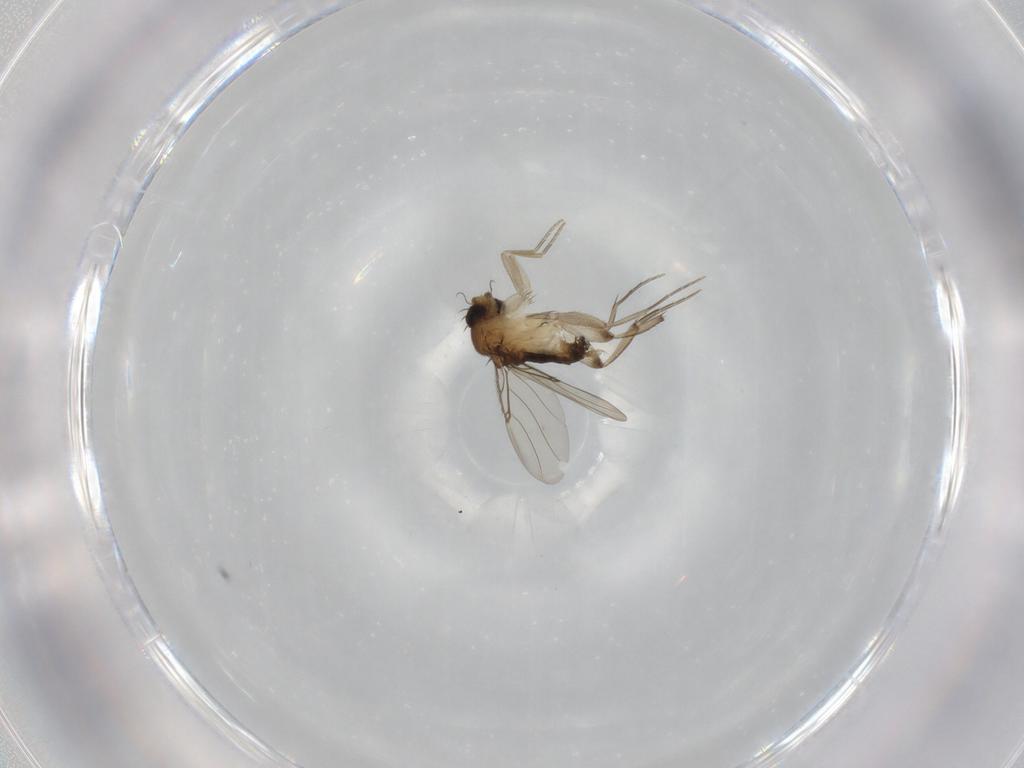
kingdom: Animalia
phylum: Arthropoda
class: Insecta
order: Diptera
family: Phoridae
